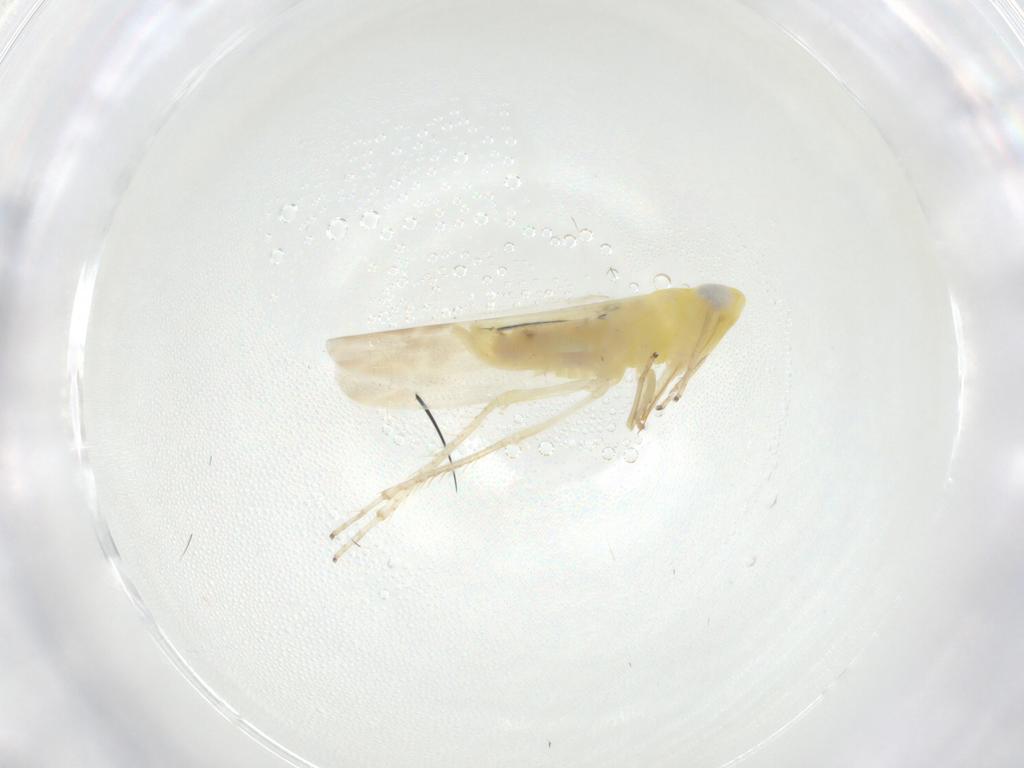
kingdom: Animalia
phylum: Arthropoda
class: Insecta
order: Hemiptera
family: Cicadellidae
